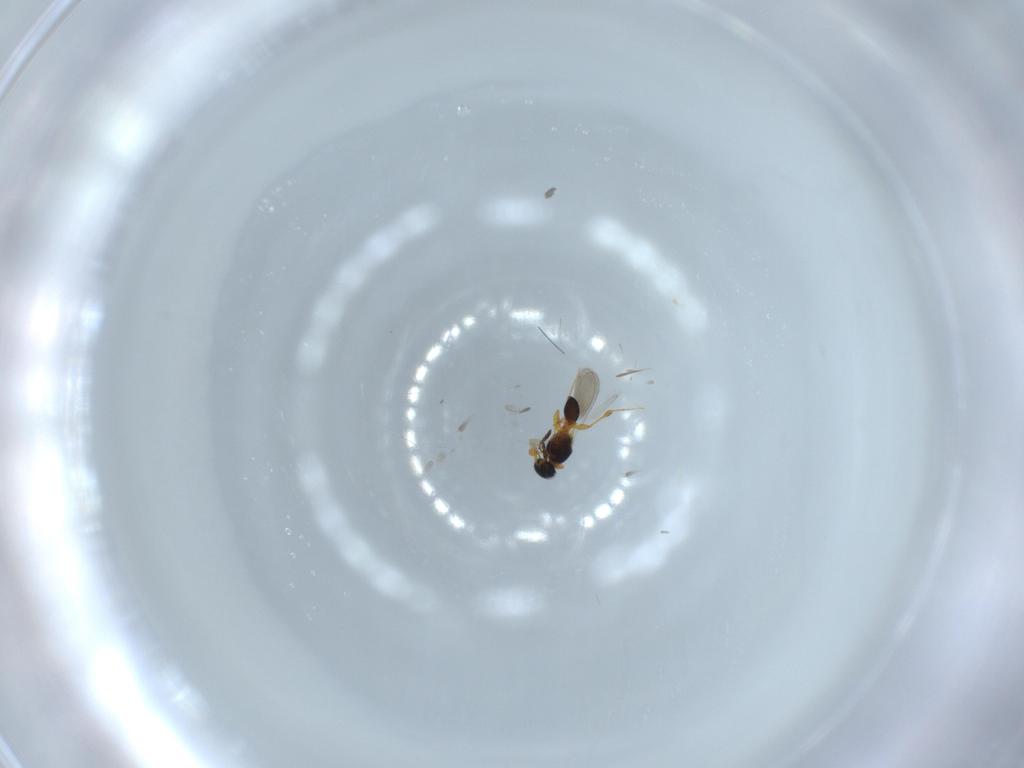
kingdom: Animalia
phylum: Arthropoda
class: Insecta
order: Hymenoptera
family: Platygastridae
